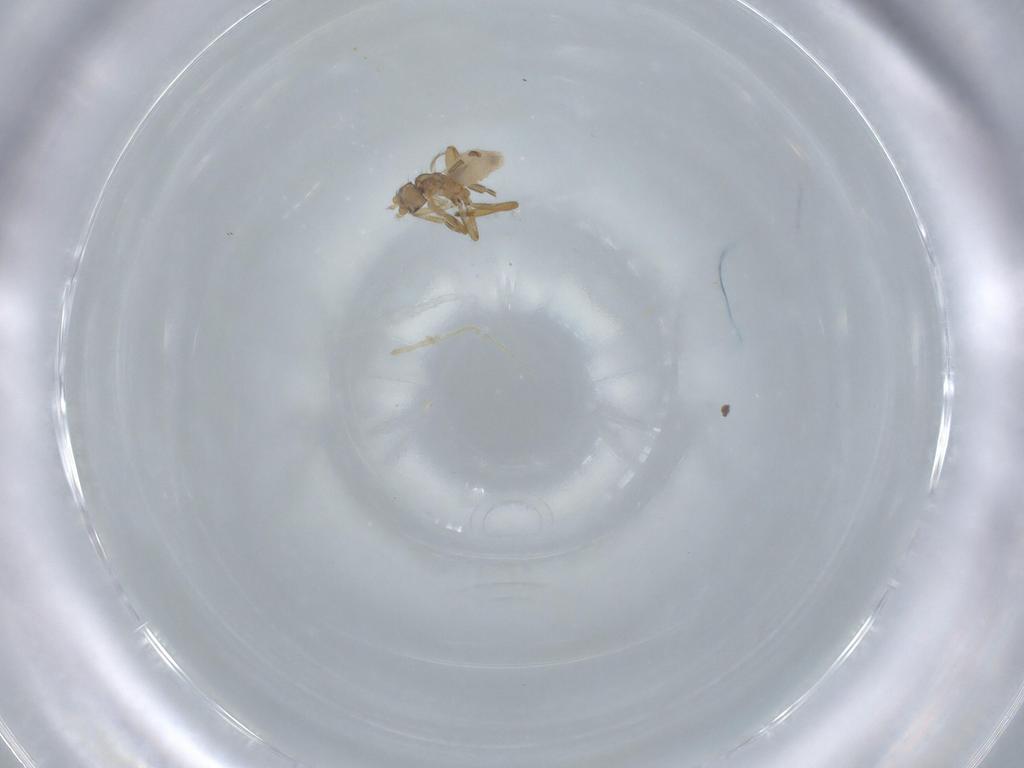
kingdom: Animalia
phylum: Arthropoda
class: Insecta
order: Diptera
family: Phoridae
